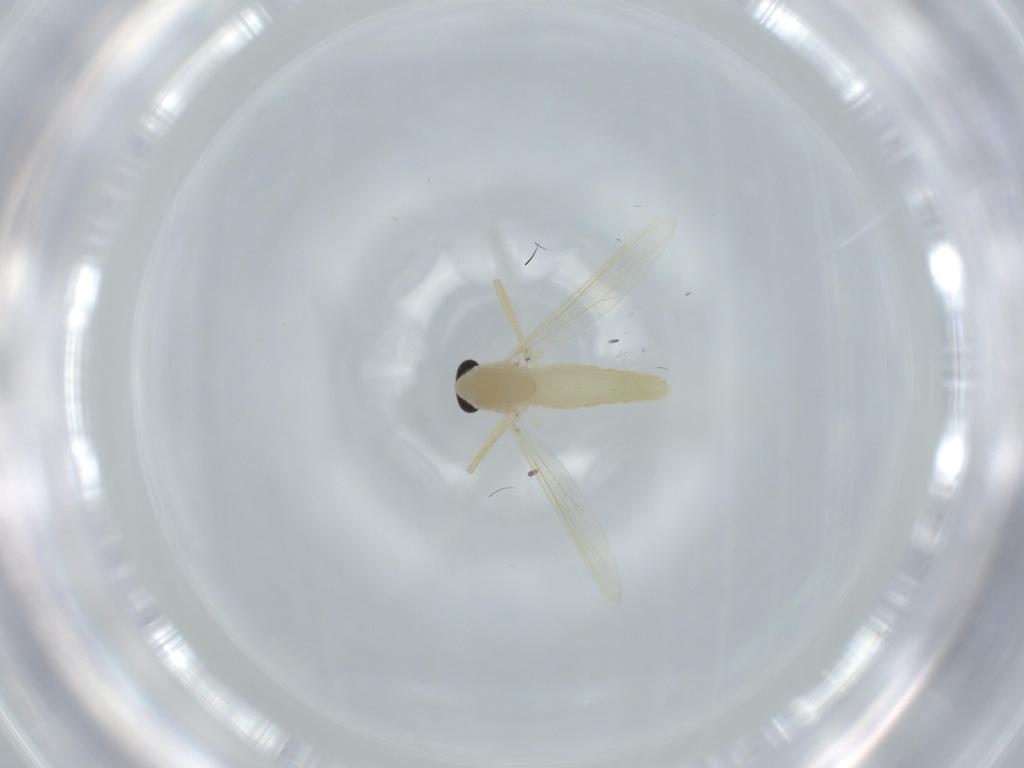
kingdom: Animalia
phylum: Arthropoda
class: Insecta
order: Diptera
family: Chironomidae
